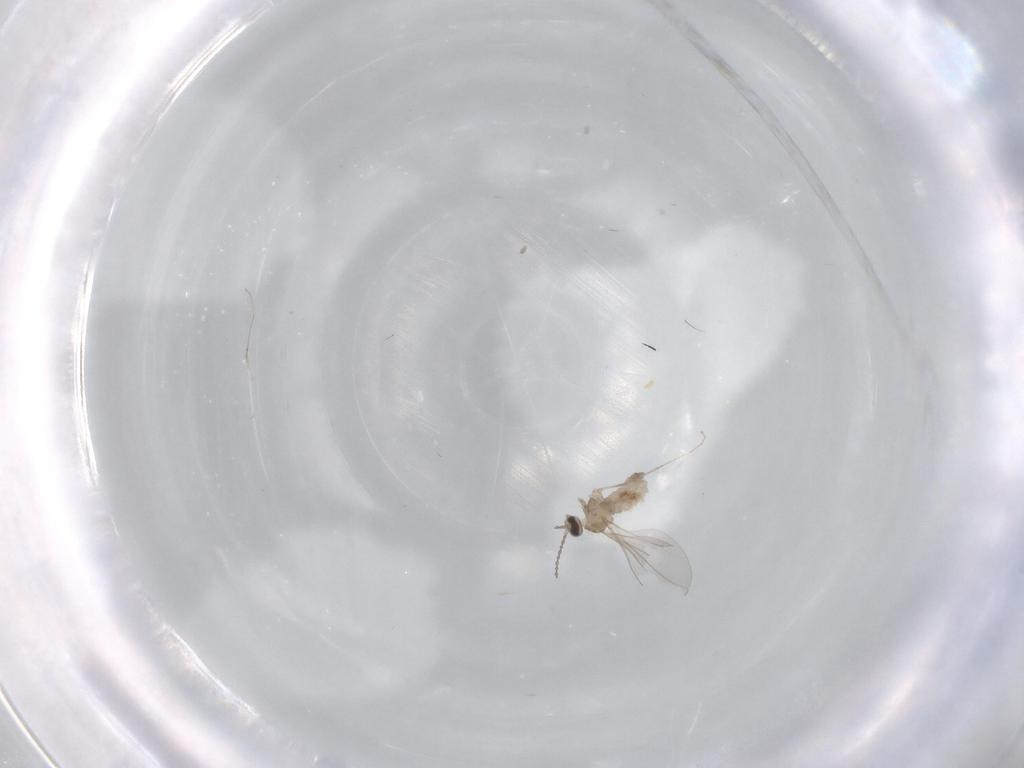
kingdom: Animalia
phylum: Arthropoda
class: Insecta
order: Diptera
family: Cecidomyiidae
